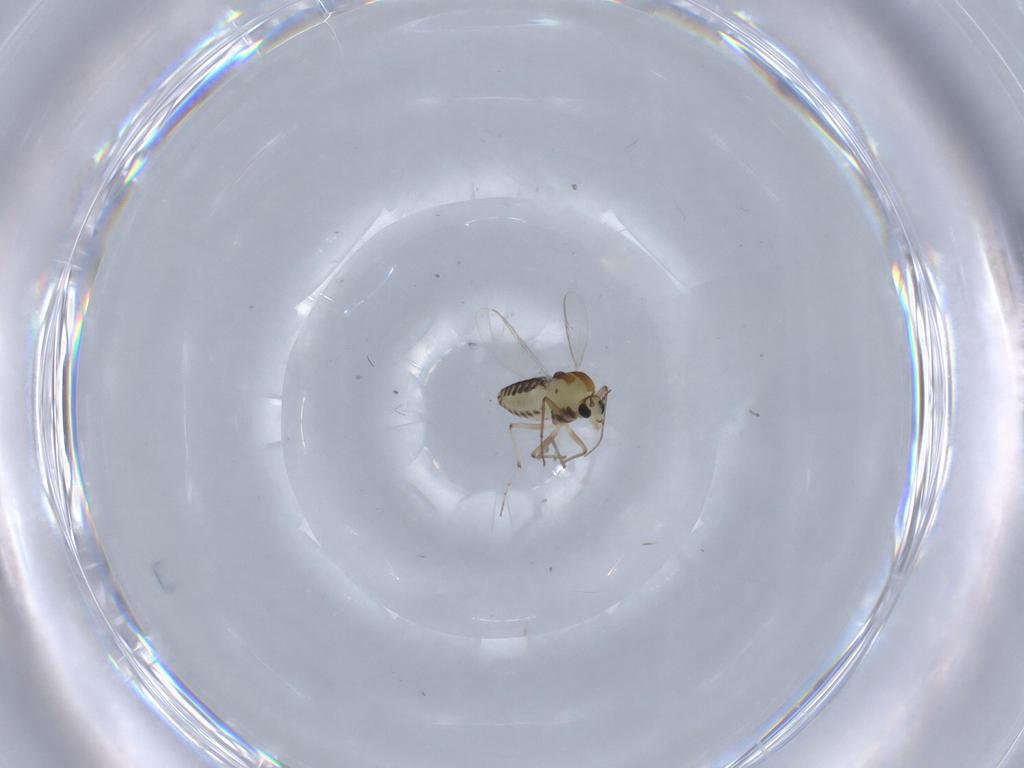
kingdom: Animalia
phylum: Arthropoda
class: Insecta
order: Diptera
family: Chironomidae
